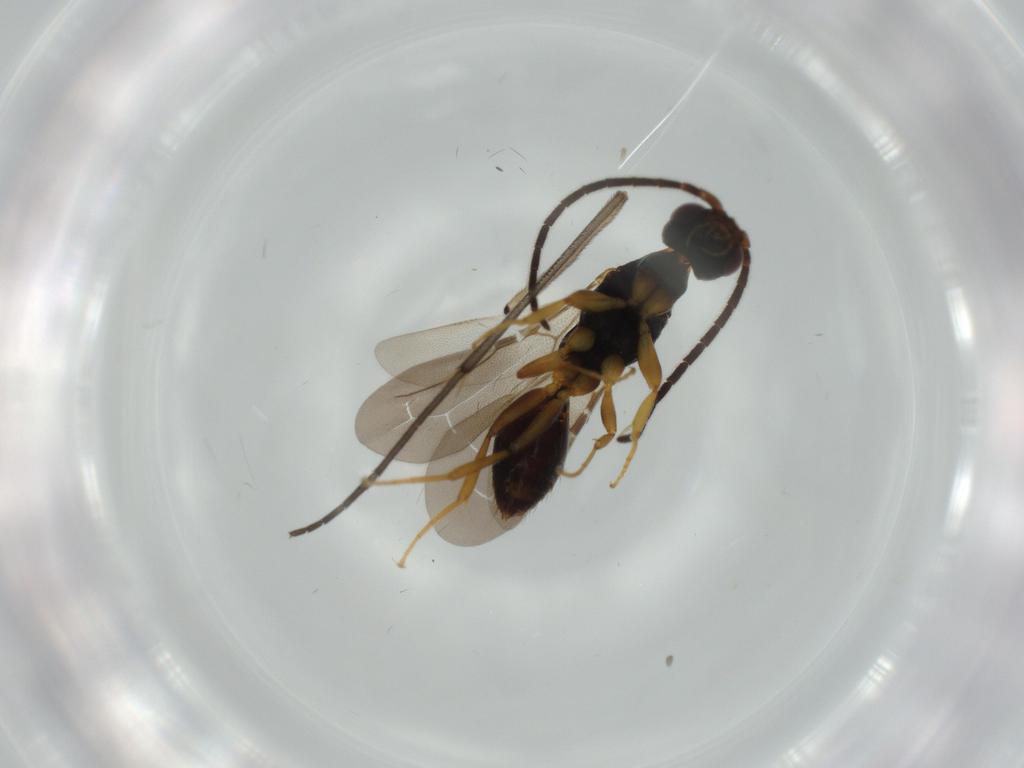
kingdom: Animalia
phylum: Arthropoda
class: Insecta
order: Hymenoptera
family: Bethylidae
